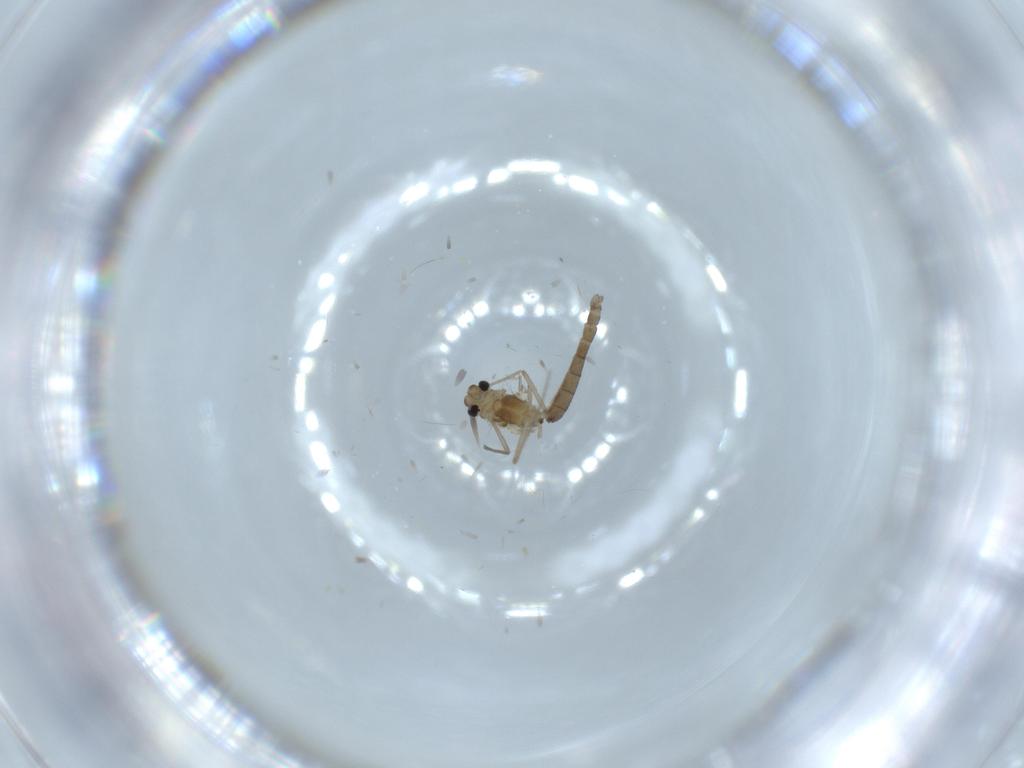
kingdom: Animalia
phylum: Arthropoda
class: Insecta
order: Diptera
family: Chironomidae
